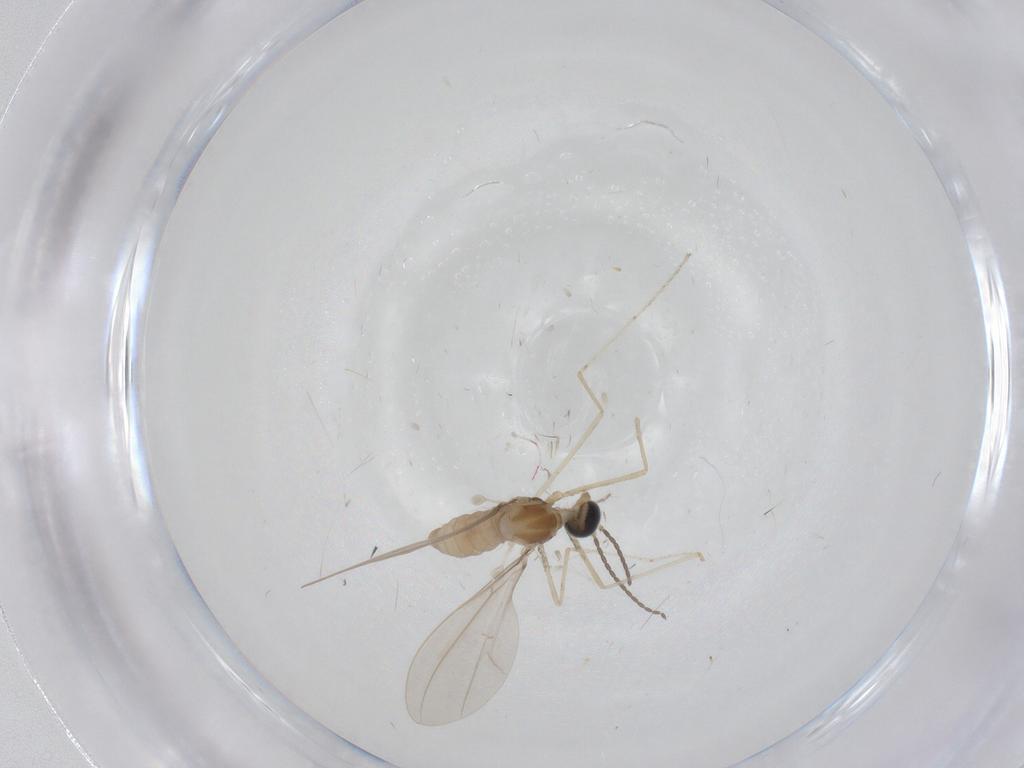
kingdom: Animalia
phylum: Arthropoda
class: Insecta
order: Diptera
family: Cecidomyiidae
